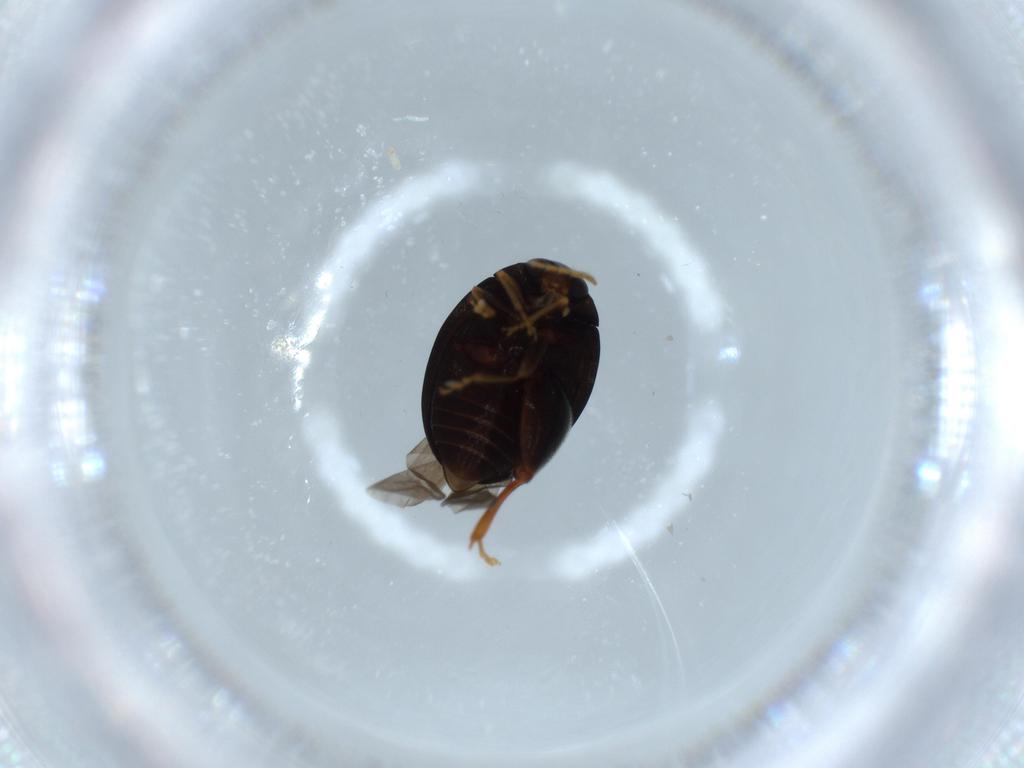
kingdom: Animalia
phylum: Arthropoda
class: Insecta
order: Coleoptera
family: Chrysomelidae
